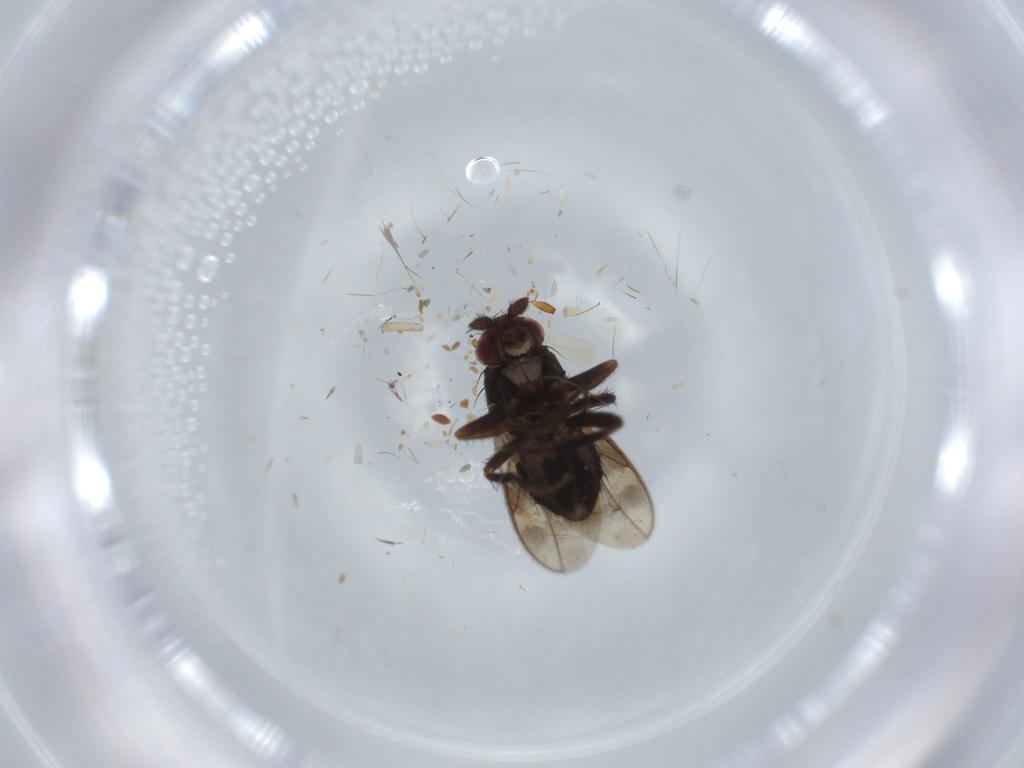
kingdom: Animalia
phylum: Arthropoda
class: Insecta
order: Diptera
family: Sphaeroceridae
